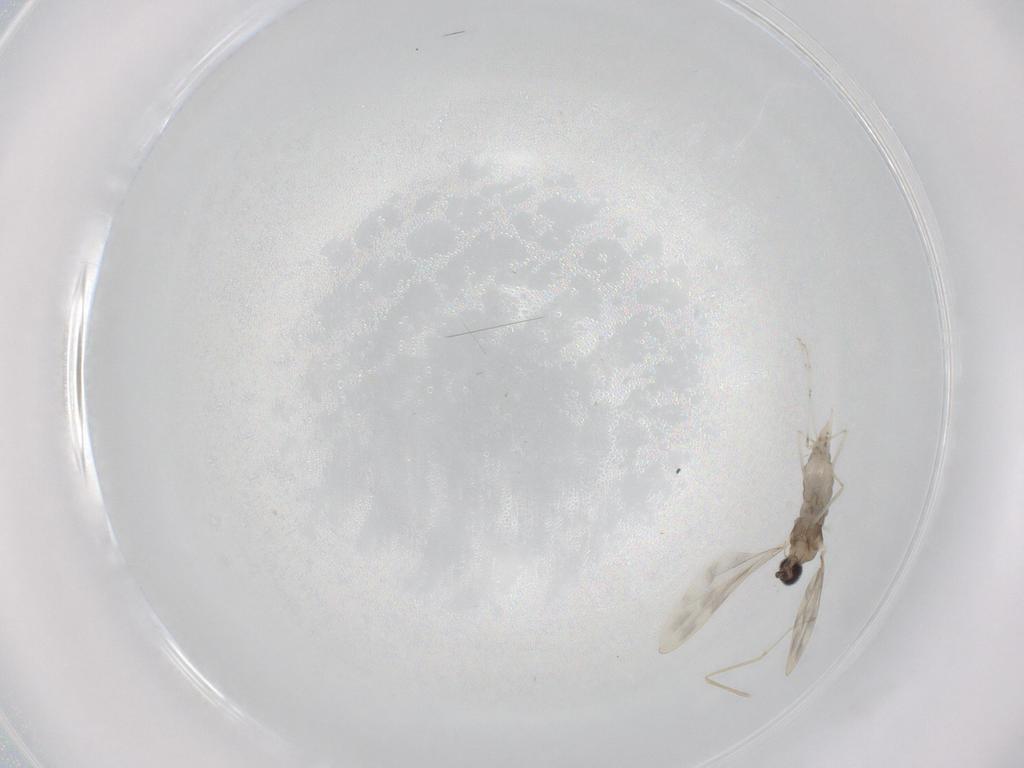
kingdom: Animalia
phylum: Arthropoda
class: Insecta
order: Diptera
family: Cecidomyiidae
